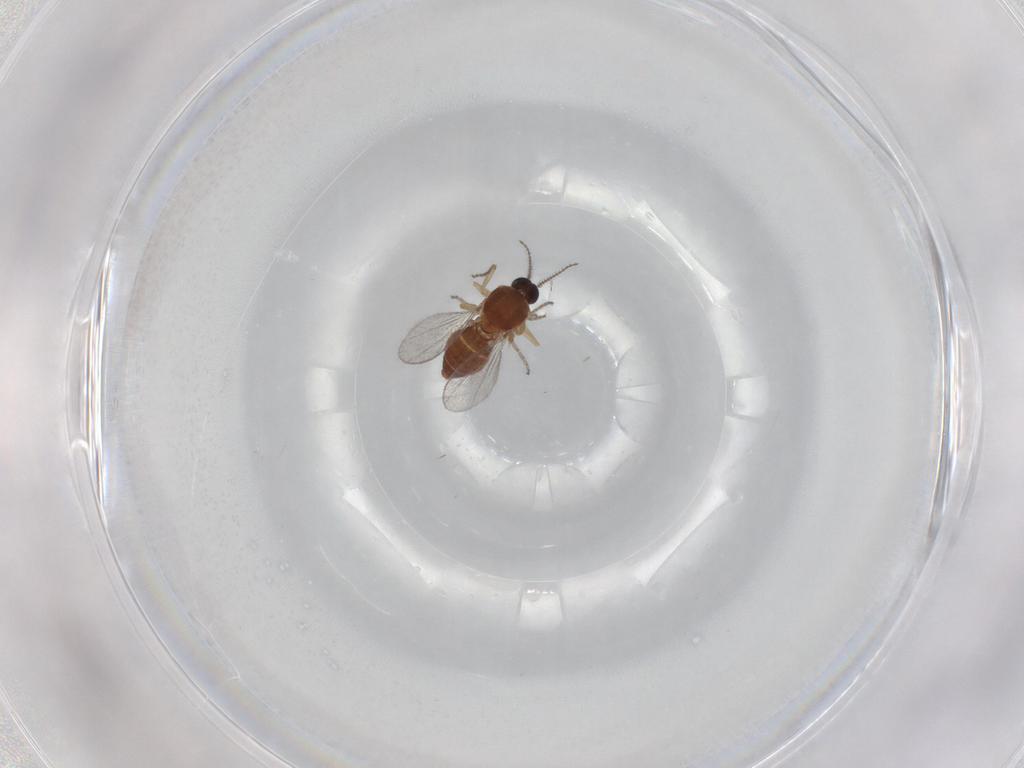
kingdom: Animalia
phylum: Arthropoda
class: Insecta
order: Diptera
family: Ceratopogonidae
